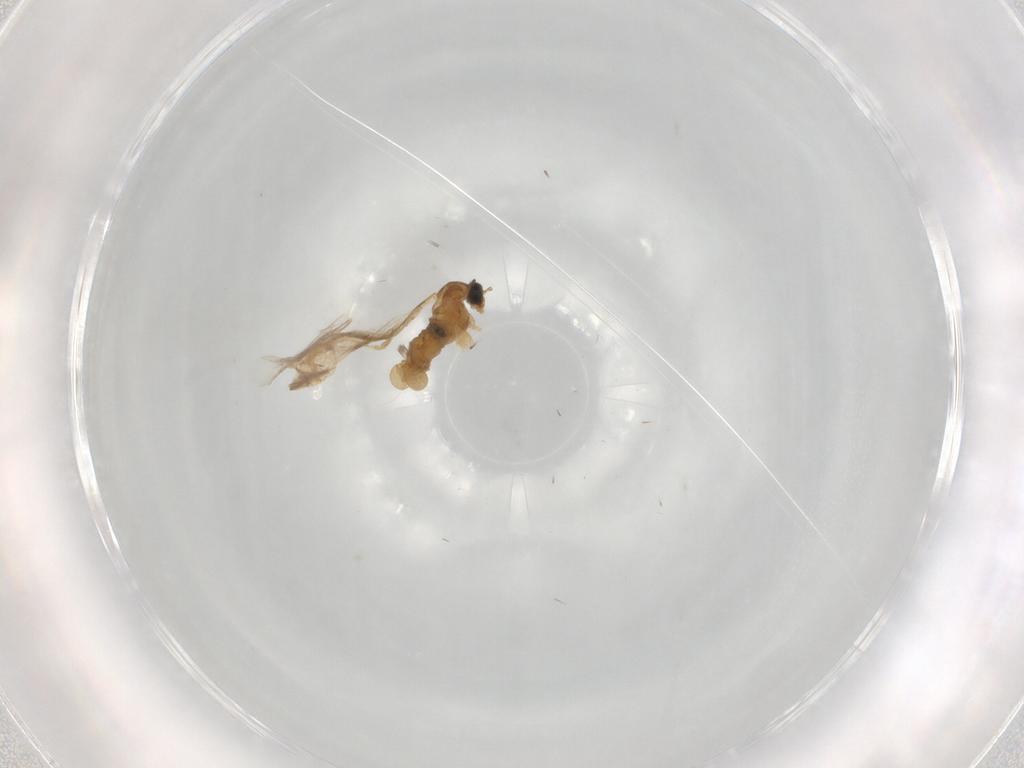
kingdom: Animalia
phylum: Arthropoda
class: Insecta
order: Diptera
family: Cecidomyiidae
